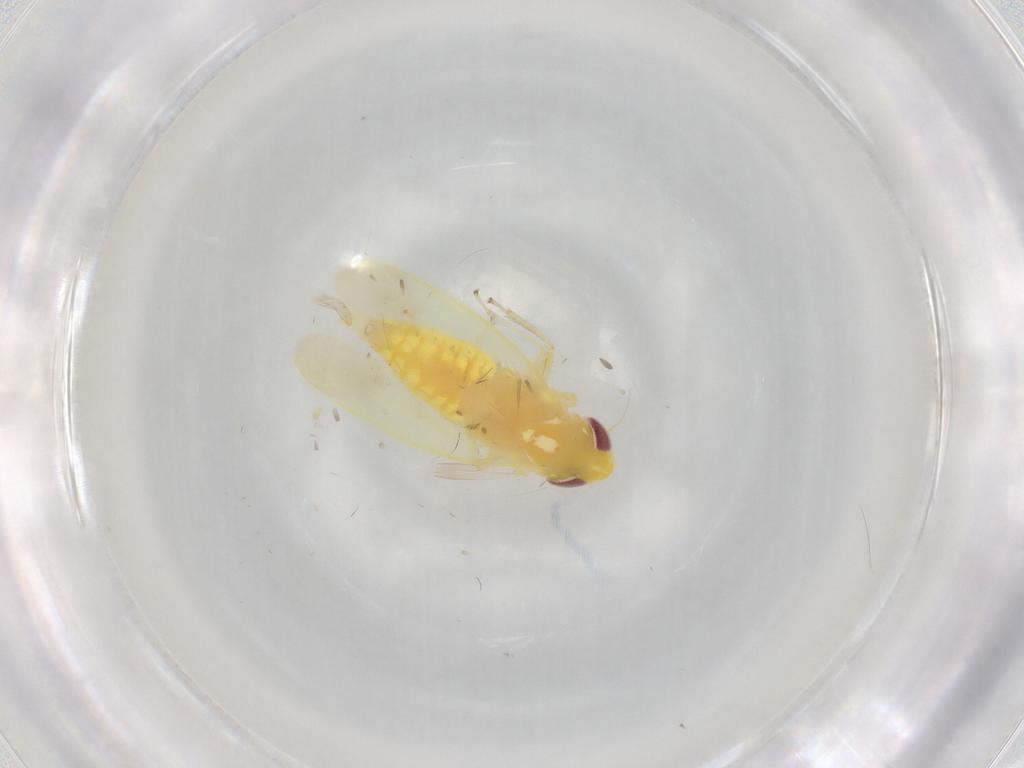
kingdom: Animalia
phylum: Arthropoda
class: Insecta
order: Hemiptera
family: Cicadellidae
